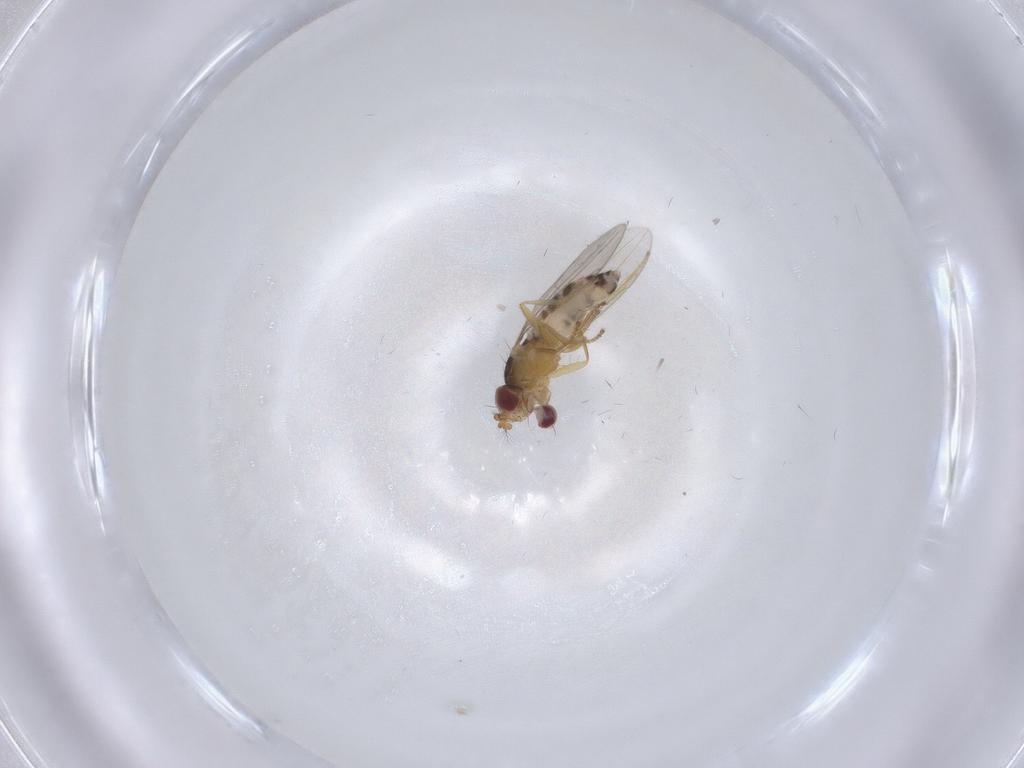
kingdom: Animalia
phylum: Arthropoda
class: Insecta
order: Diptera
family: Periscelididae
